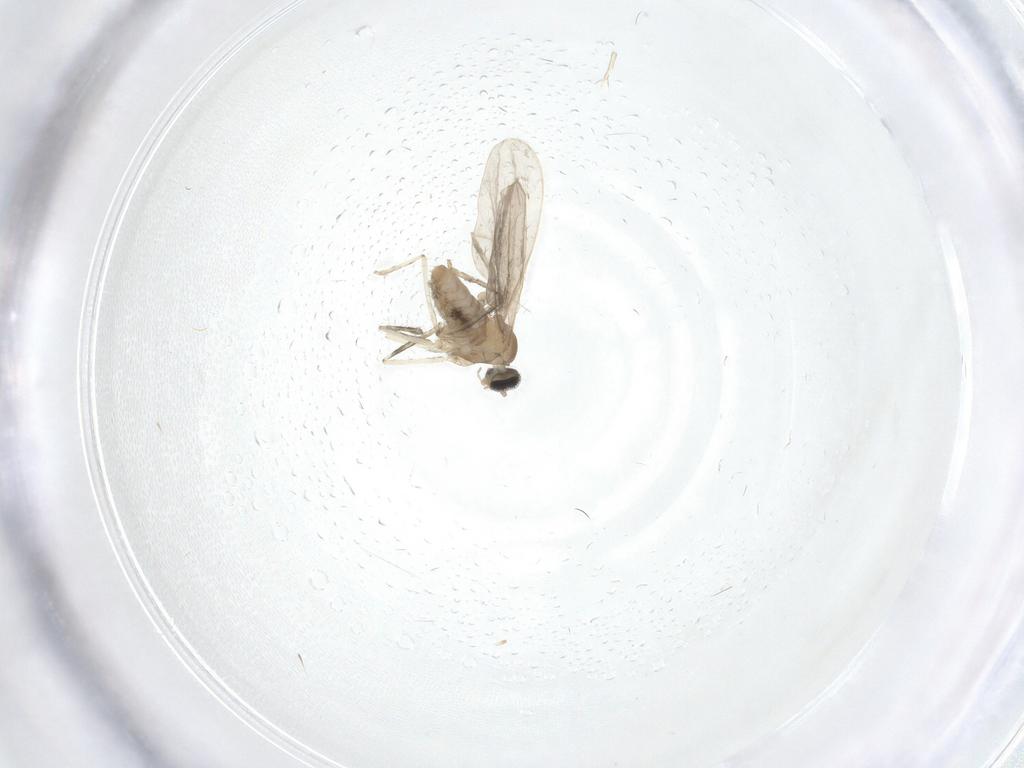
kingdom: Animalia
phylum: Arthropoda
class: Insecta
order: Diptera
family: Cecidomyiidae
